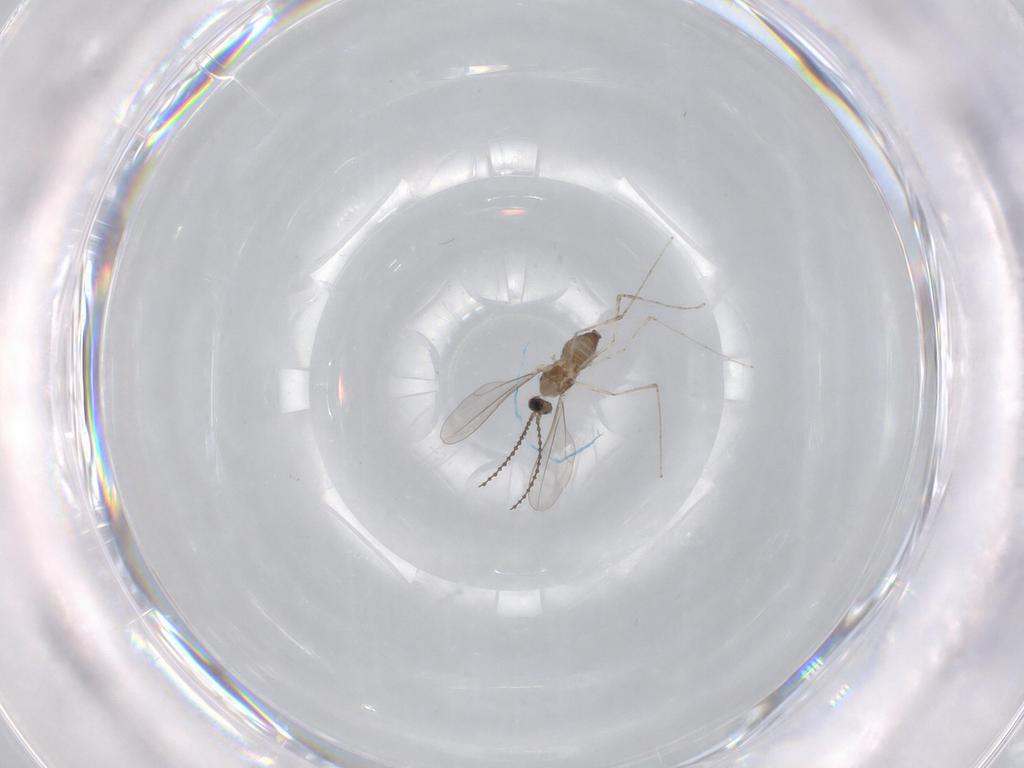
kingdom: Animalia
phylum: Arthropoda
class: Insecta
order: Diptera
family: Cecidomyiidae
